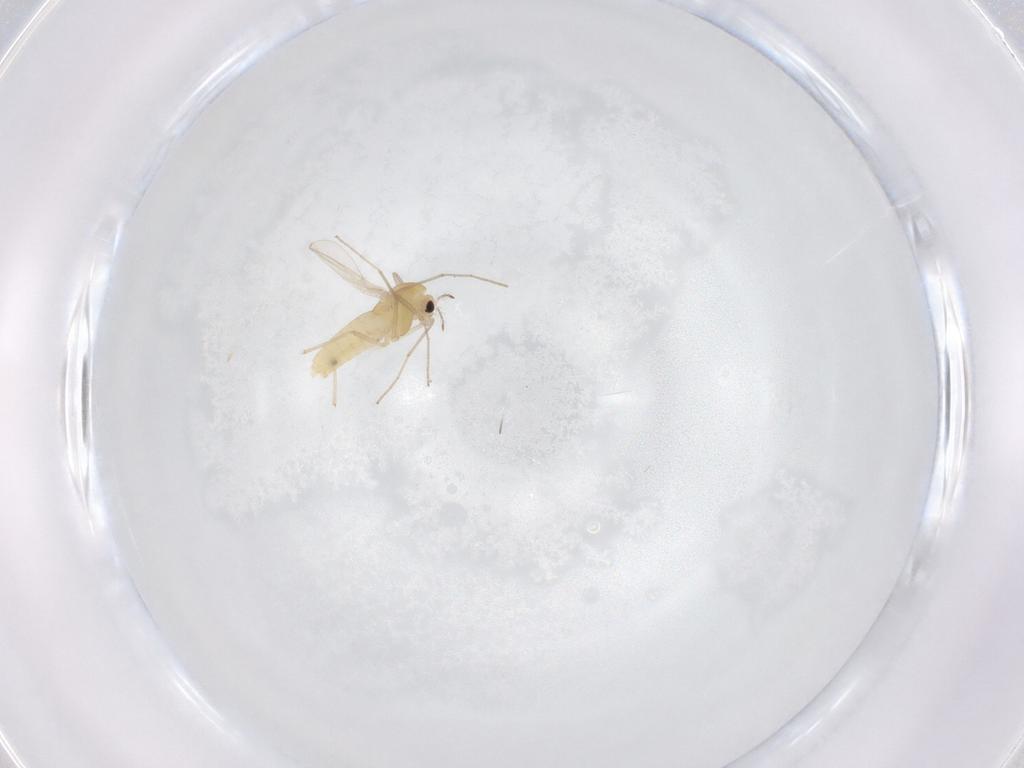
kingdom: Animalia
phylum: Arthropoda
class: Insecta
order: Diptera
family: Chironomidae
